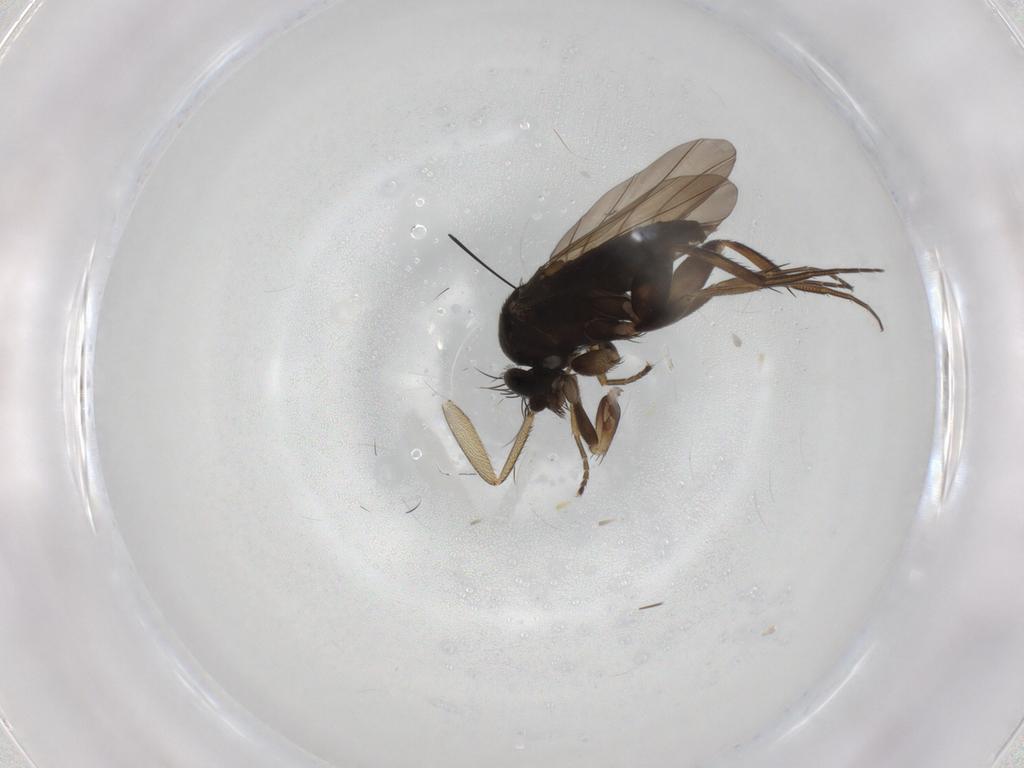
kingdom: Animalia
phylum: Arthropoda
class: Insecta
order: Diptera
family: Phoridae
